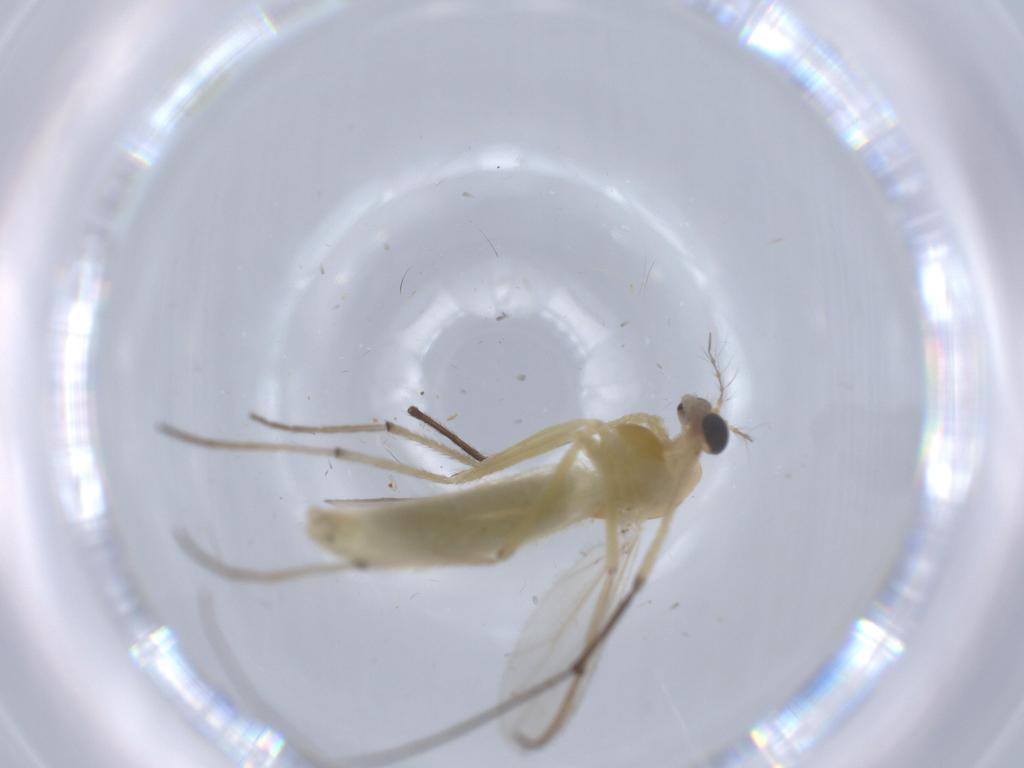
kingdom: Animalia
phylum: Arthropoda
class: Insecta
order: Diptera
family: Chironomidae
